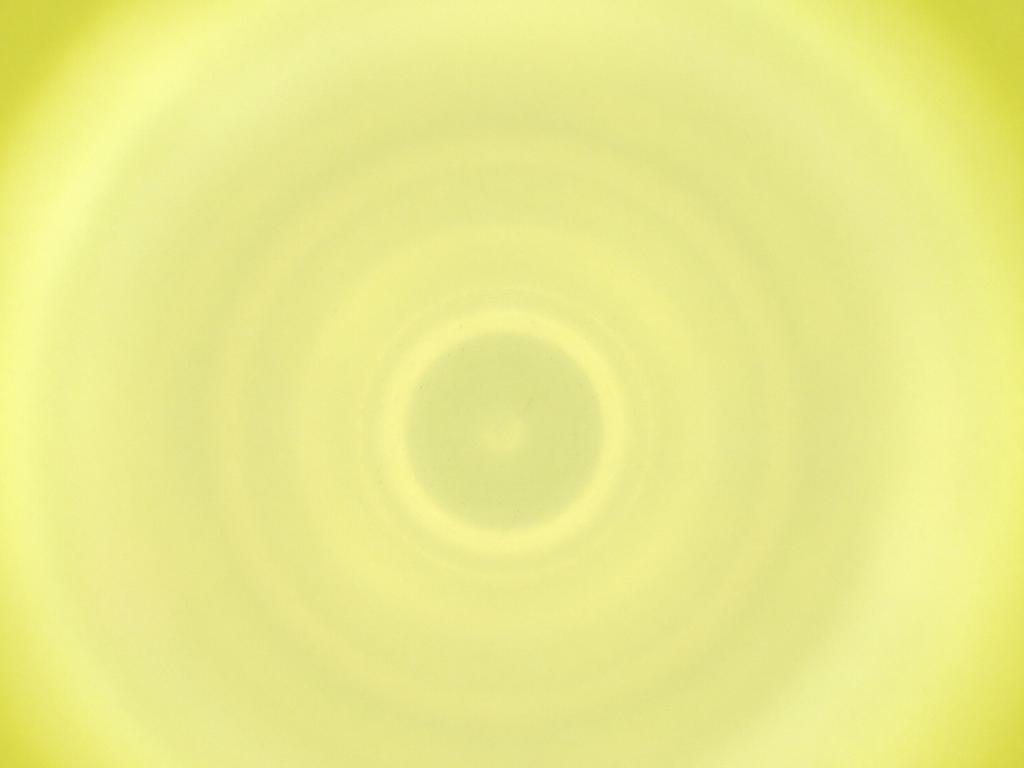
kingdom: Animalia
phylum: Arthropoda
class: Insecta
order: Diptera
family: Cecidomyiidae
